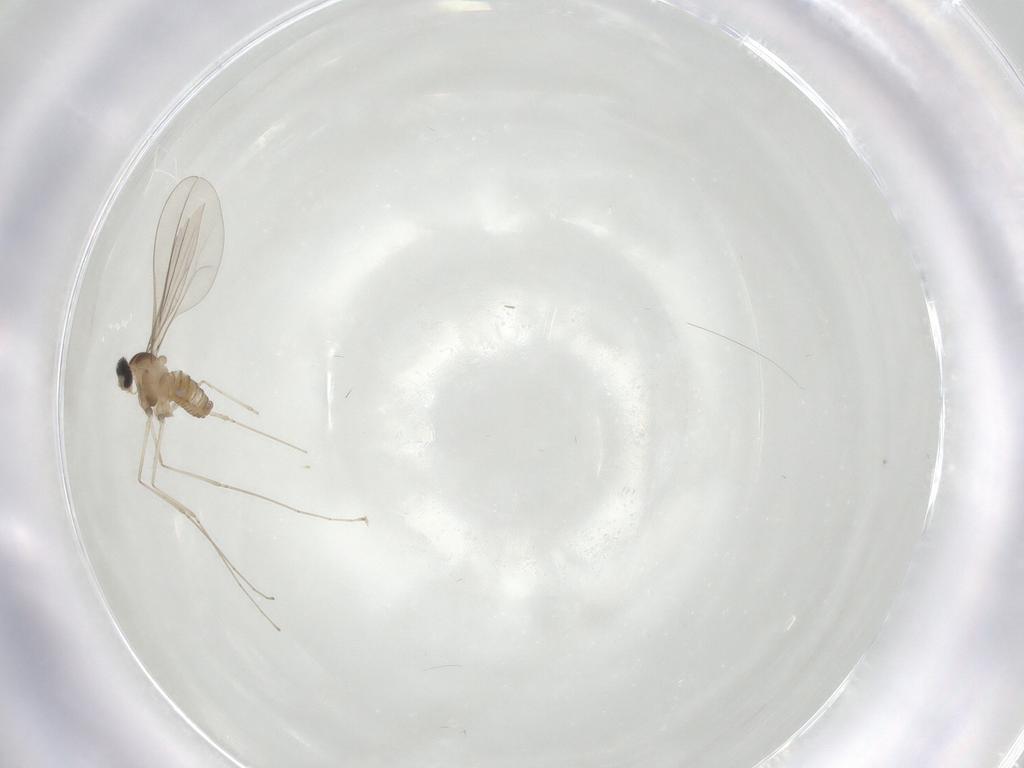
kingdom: Animalia
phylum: Arthropoda
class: Insecta
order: Diptera
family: Cecidomyiidae
